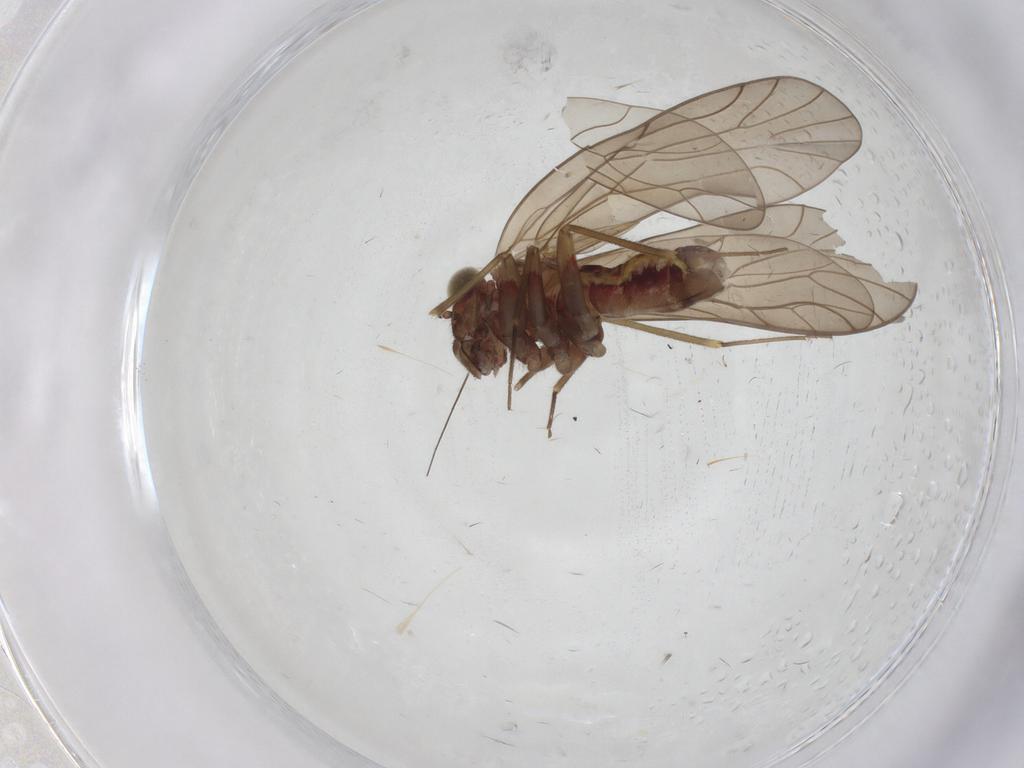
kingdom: Animalia
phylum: Arthropoda
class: Insecta
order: Psocodea
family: Philotarsidae
